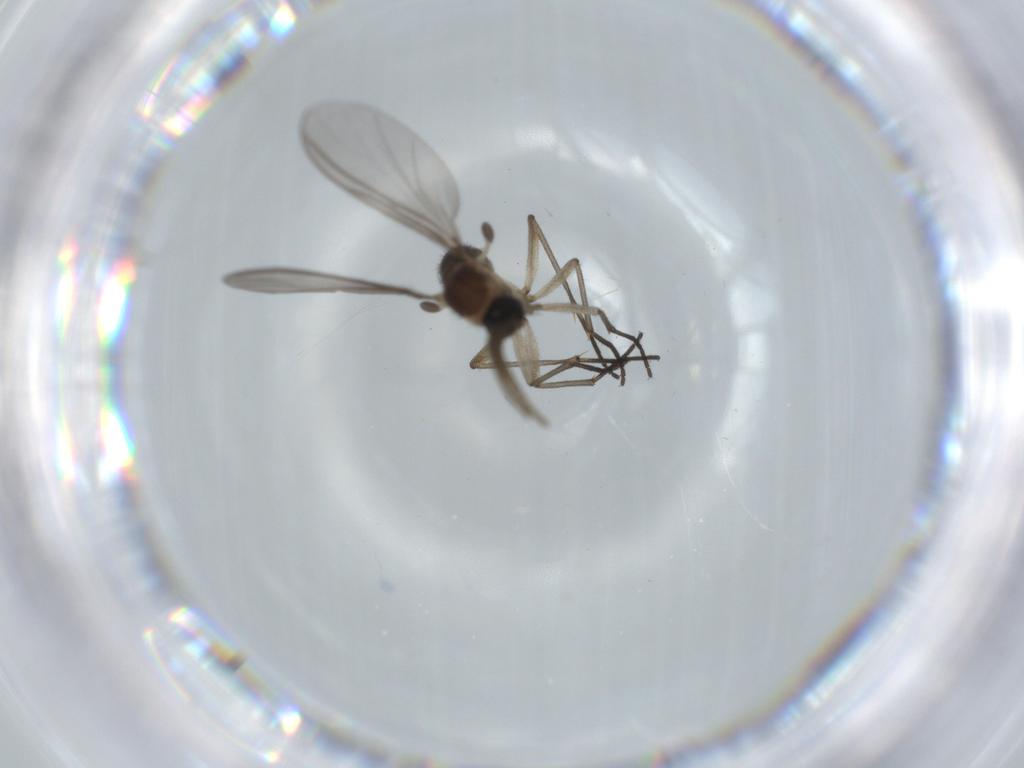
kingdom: Animalia
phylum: Arthropoda
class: Insecta
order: Diptera
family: Sciaridae
